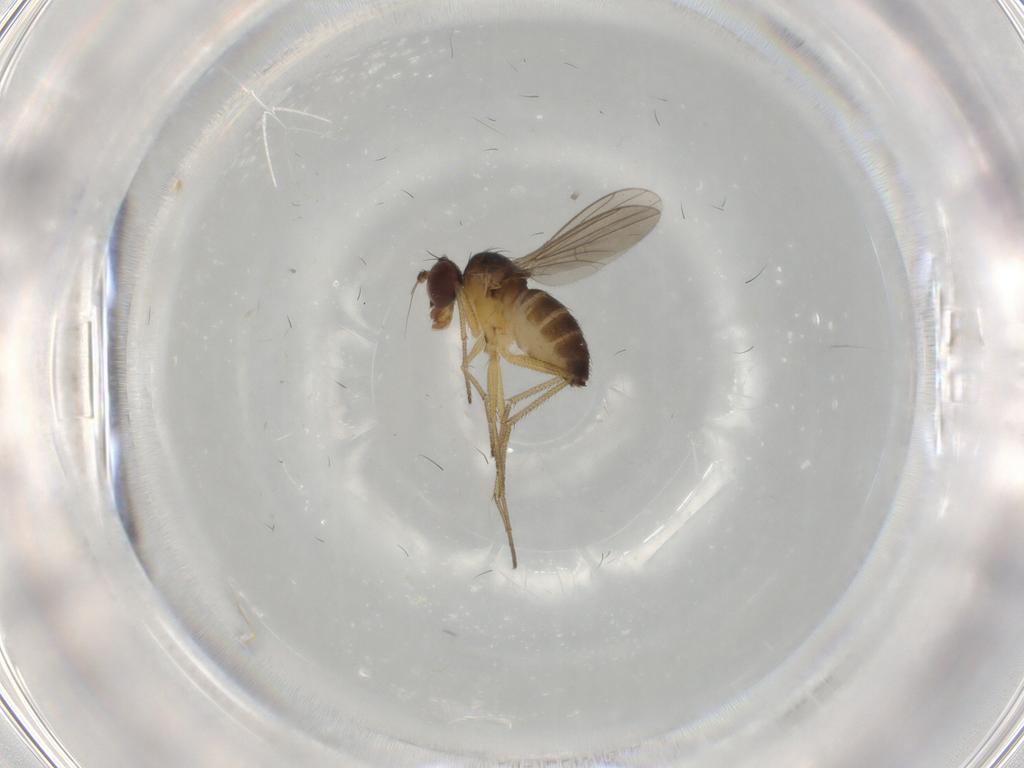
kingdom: Animalia
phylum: Arthropoda
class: Insecta
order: Diptera
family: Dolichopodidae
